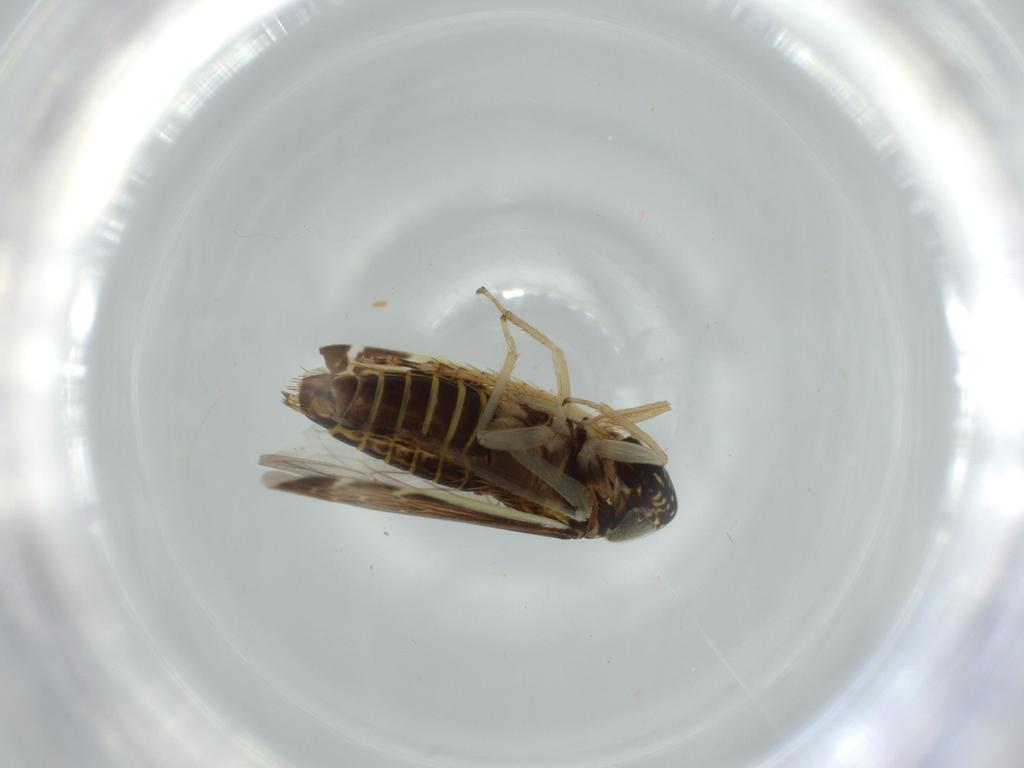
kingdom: Animalia
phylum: Arthropoda
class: Insecta
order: Hemiptera
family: Cicadellidae
